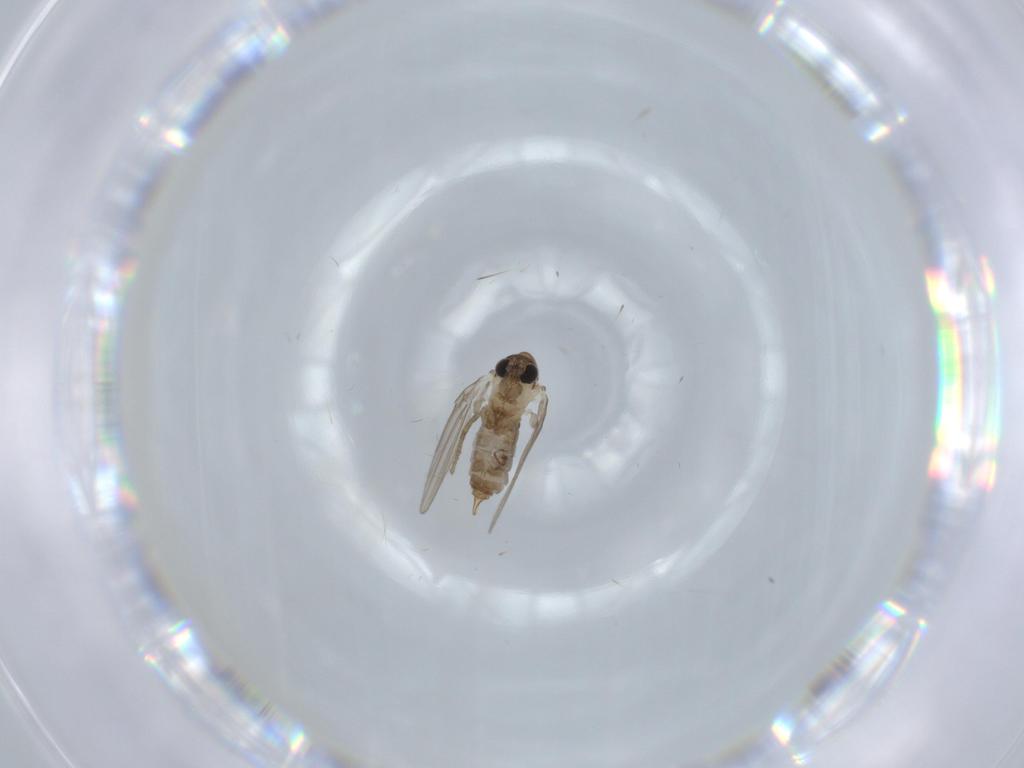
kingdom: Animalia
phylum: Arthropoda
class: Insecta
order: Diptera
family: Psychodidae
